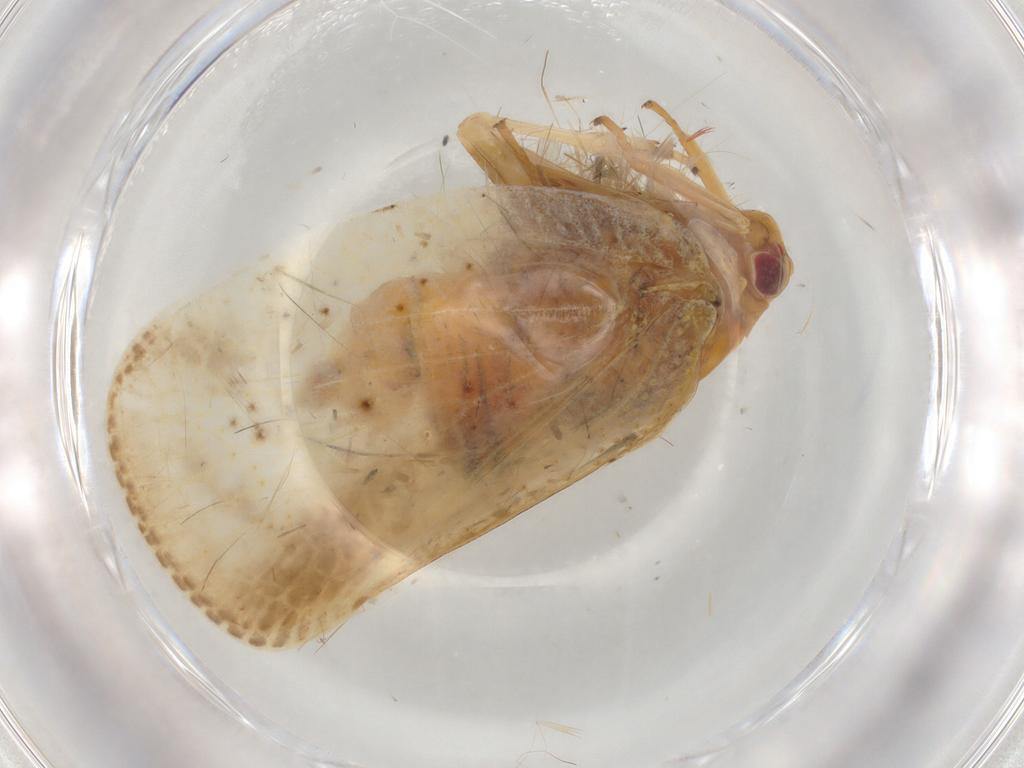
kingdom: Animalia
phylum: Arthropoda
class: Insecta
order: Hemiptera
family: Flatidae
